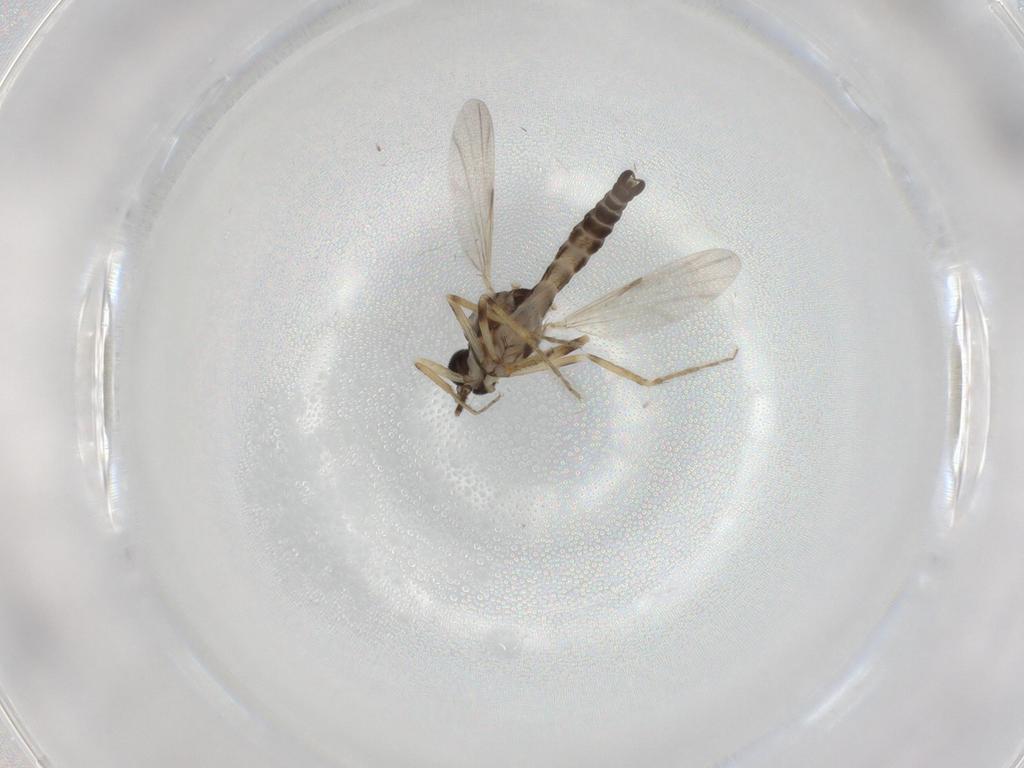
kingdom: Animalia
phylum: Arthropoda
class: Insecta
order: Diptera
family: Ceratopogonidae
